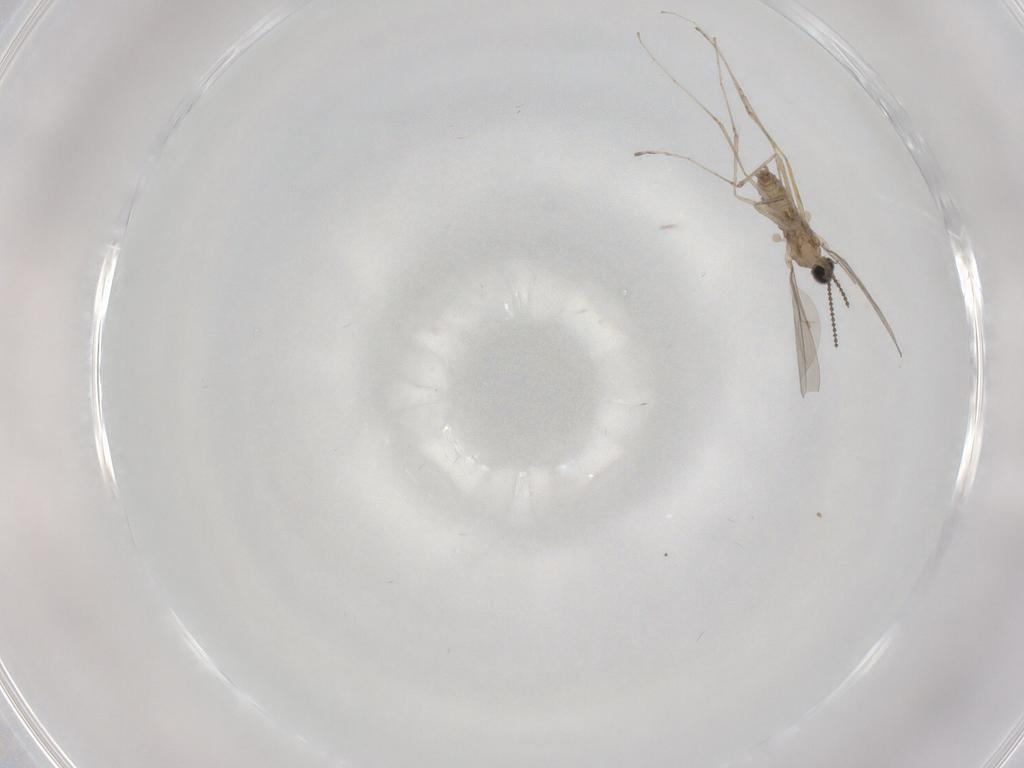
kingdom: Animalia
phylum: Arthropoda
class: Insecta
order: Diptera
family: Cecidomyiidae
